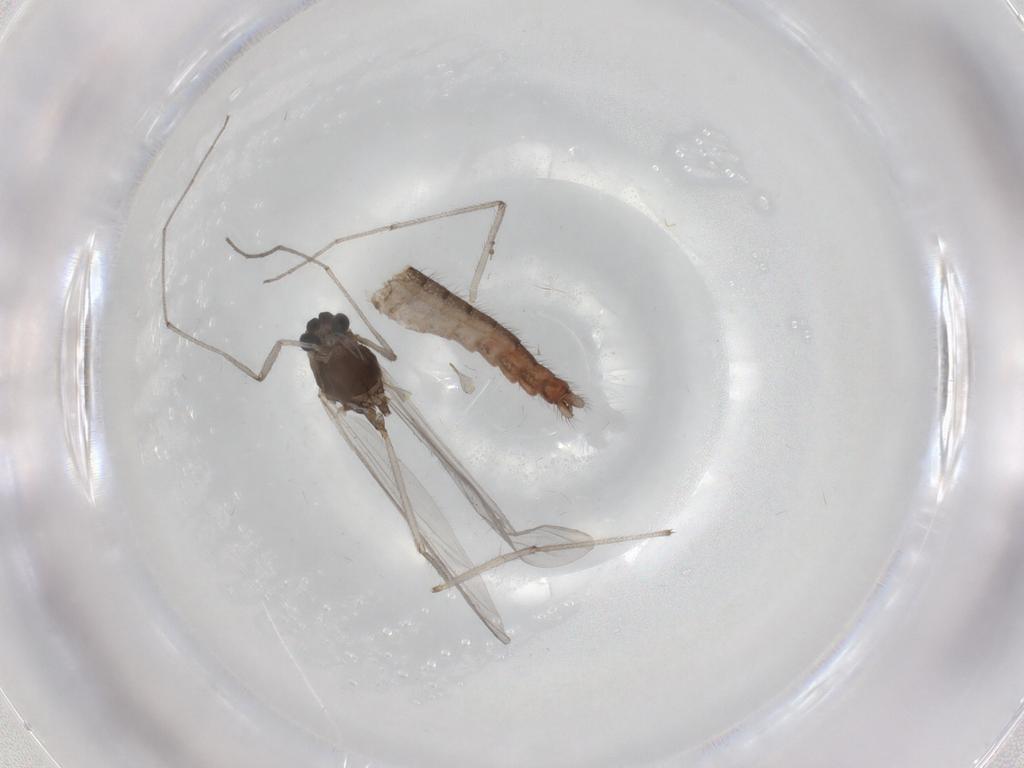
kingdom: Animalia
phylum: Arthropoda
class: Insecta
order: Diptera
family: Chironomidae
